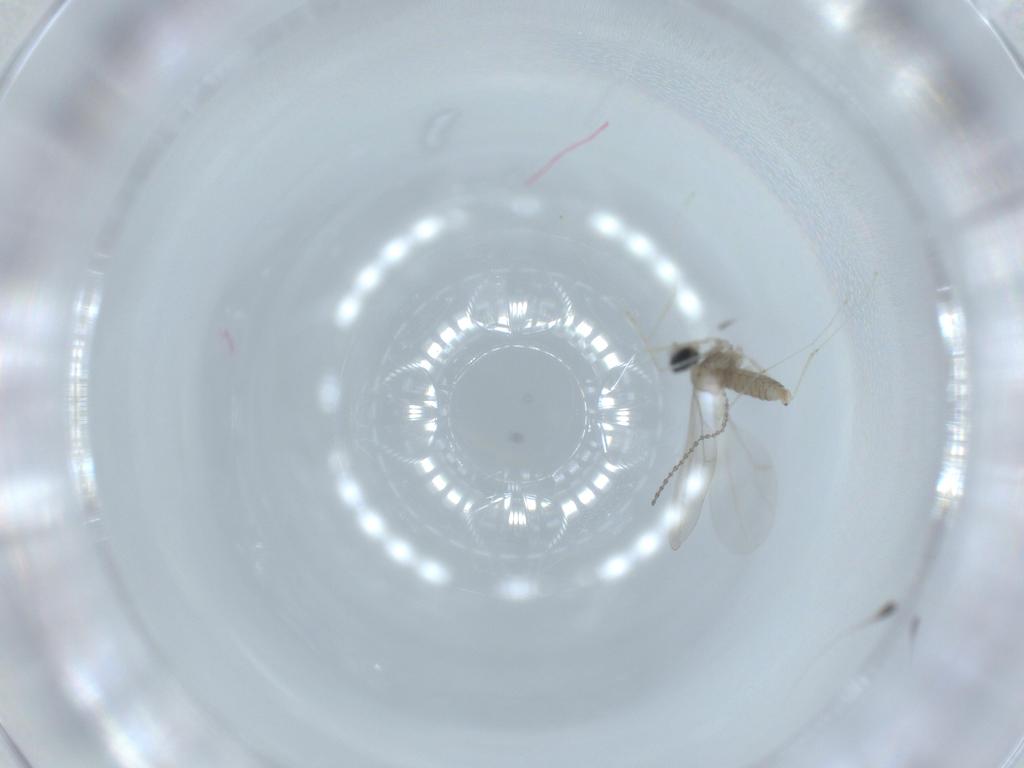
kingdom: Animalia
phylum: Arthropoda
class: Insecta
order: Diptera
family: Cecidomyiidae
